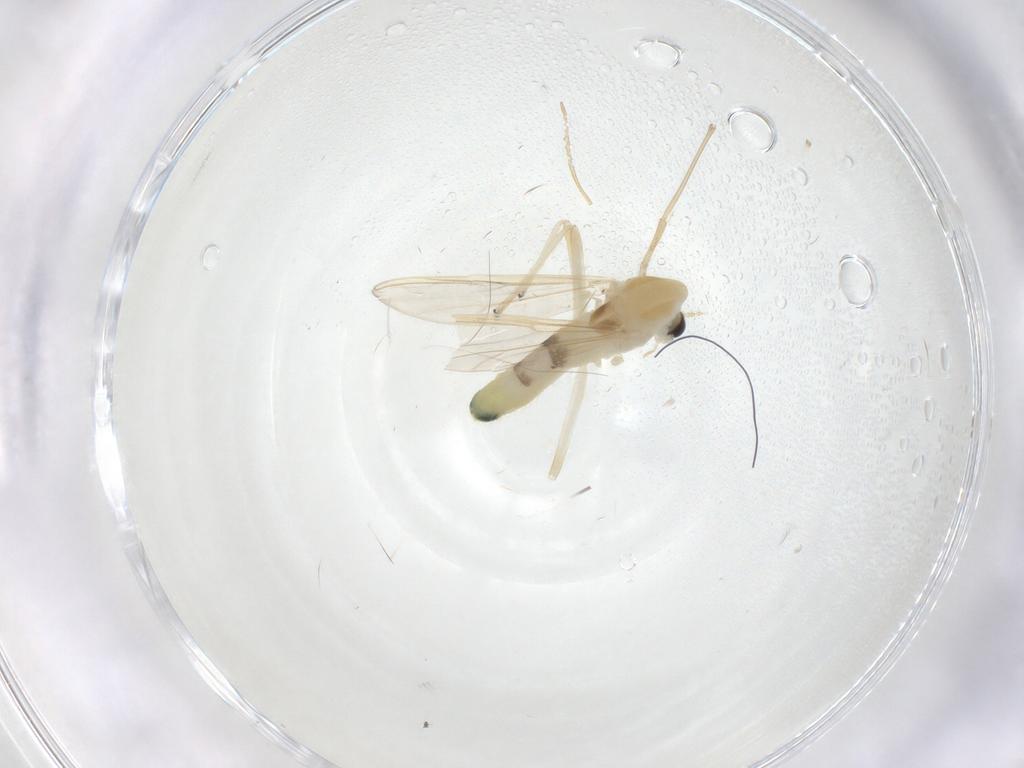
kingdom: Animalia
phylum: Arthropoda
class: Insecta
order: Diptera
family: Chironomidae
